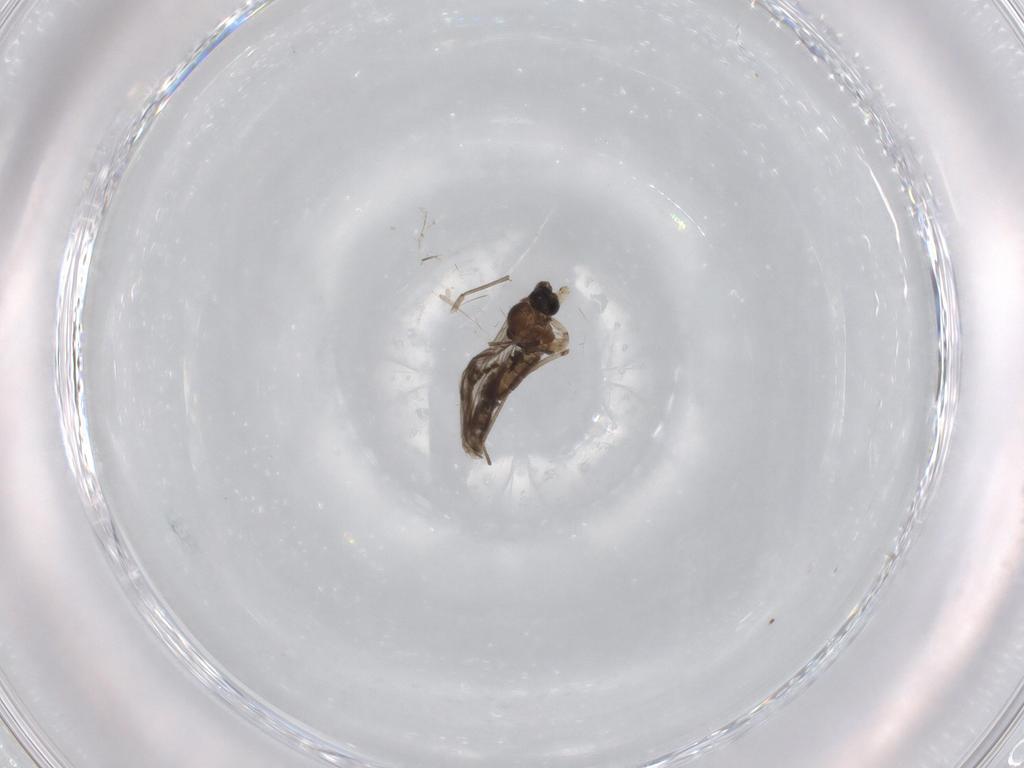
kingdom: Animalia
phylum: Arthropoda
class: Insecta
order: Diptera
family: Sciaridae
